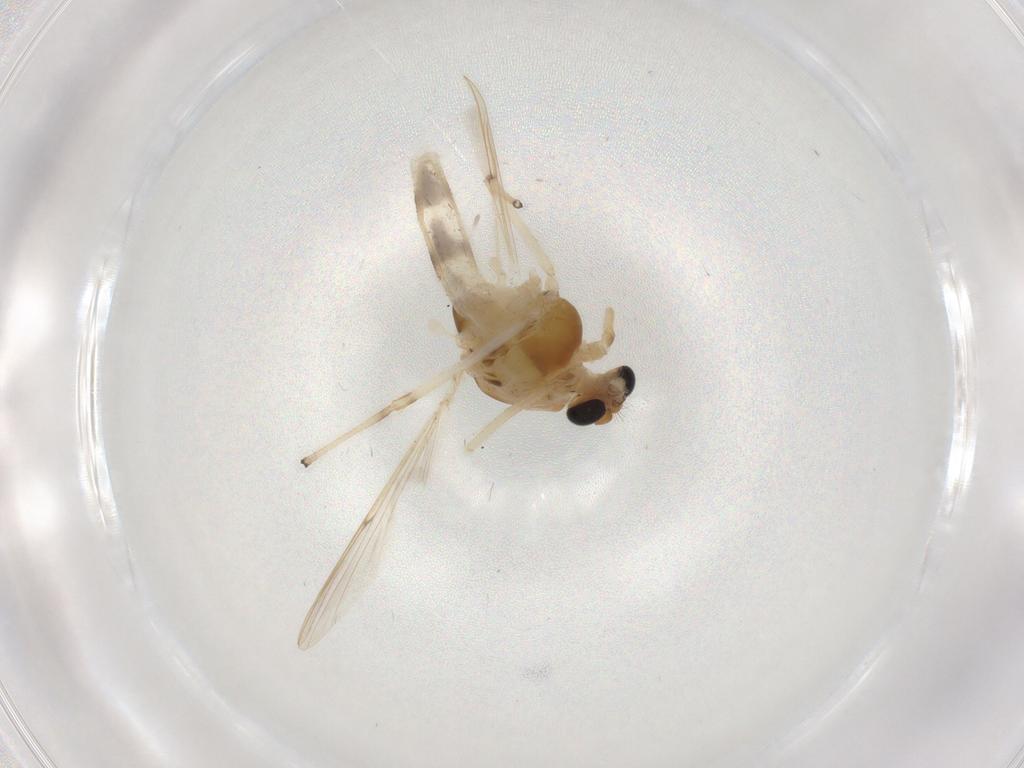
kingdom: Animalia
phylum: Arthropoda
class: Insecta
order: Diptera
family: Chironomidae
